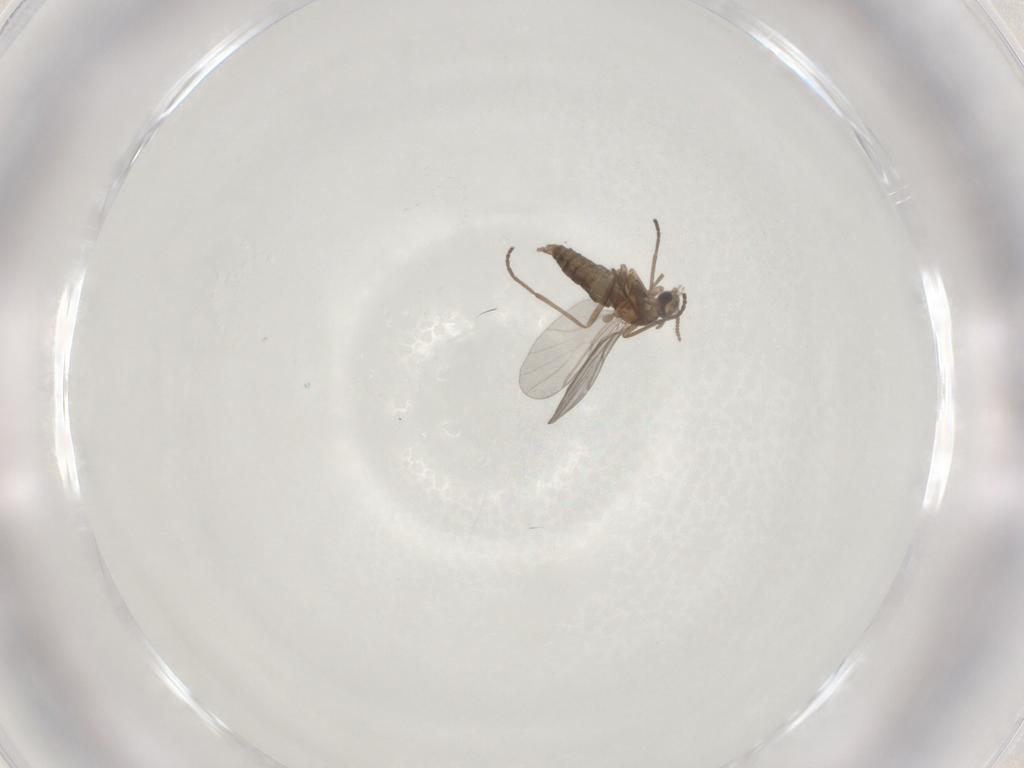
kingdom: Animalia
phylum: Arthropoda
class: Insecta
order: Diptera
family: Cecidomyiidae
